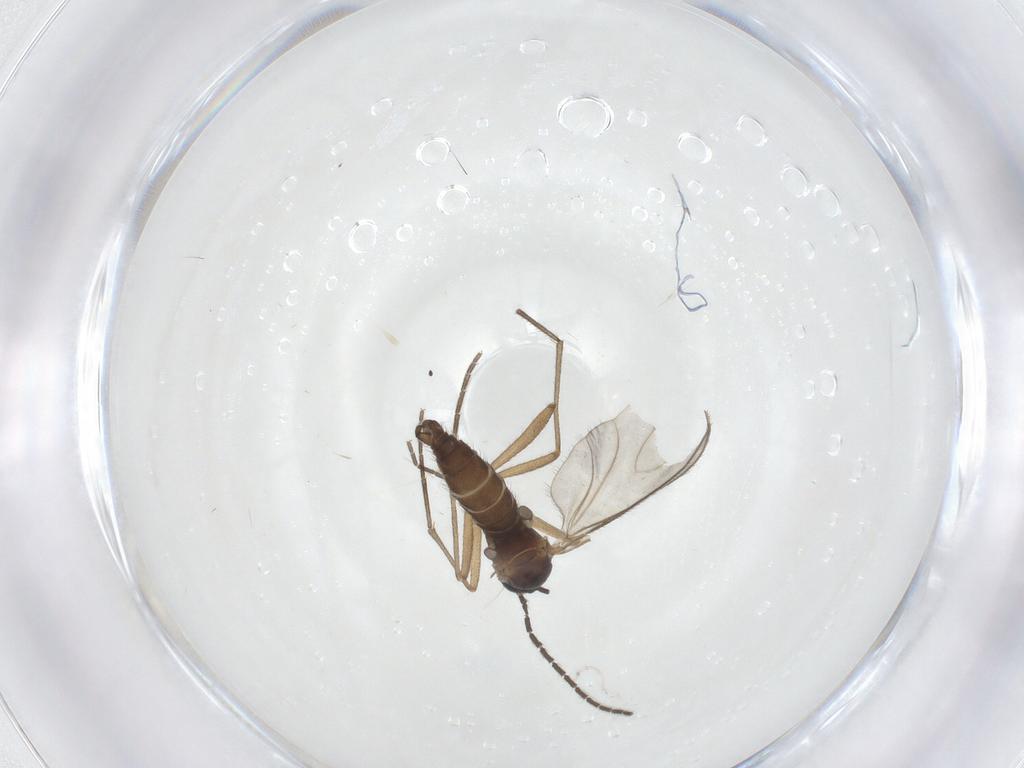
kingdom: Animalia
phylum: Arthropoda
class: Insecta
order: Diptera
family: Sciaridae
